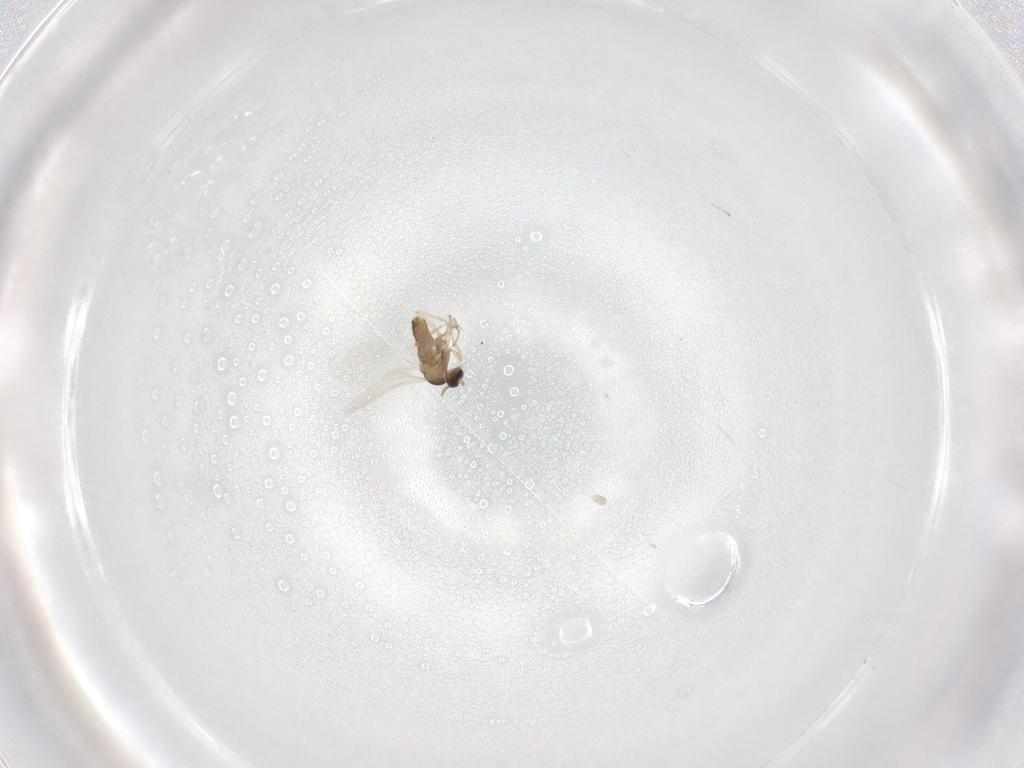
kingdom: Animalia
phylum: Arthropoda
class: Insecta
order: Diptera
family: Cecidomyiidae
